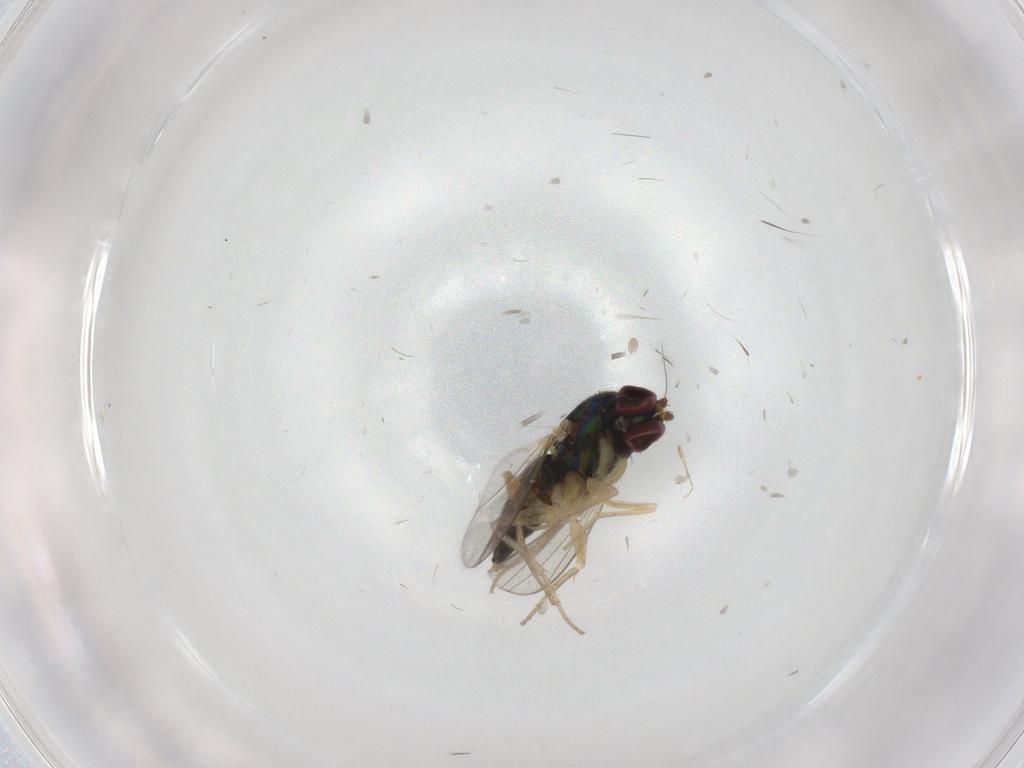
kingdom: Animalia
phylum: Arthropoda
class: Insecta
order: Diptera
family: Dolichopodidae
